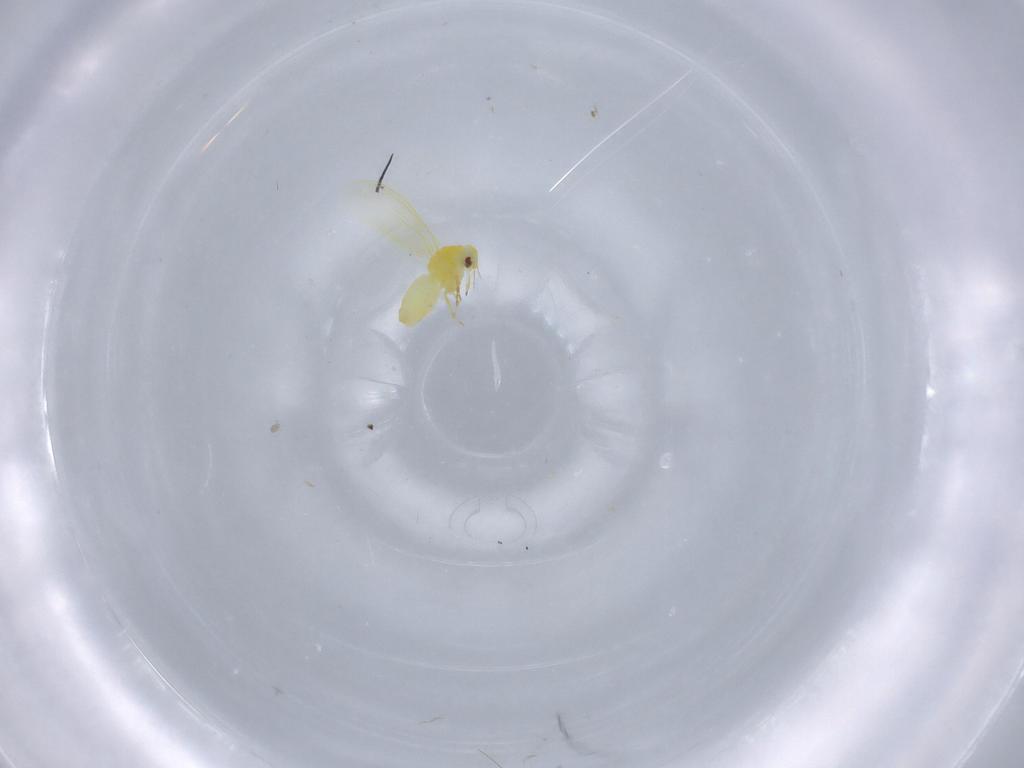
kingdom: Animalia
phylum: Arthropoda
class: Insecta
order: Hemiptera
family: Aleyrodidae
